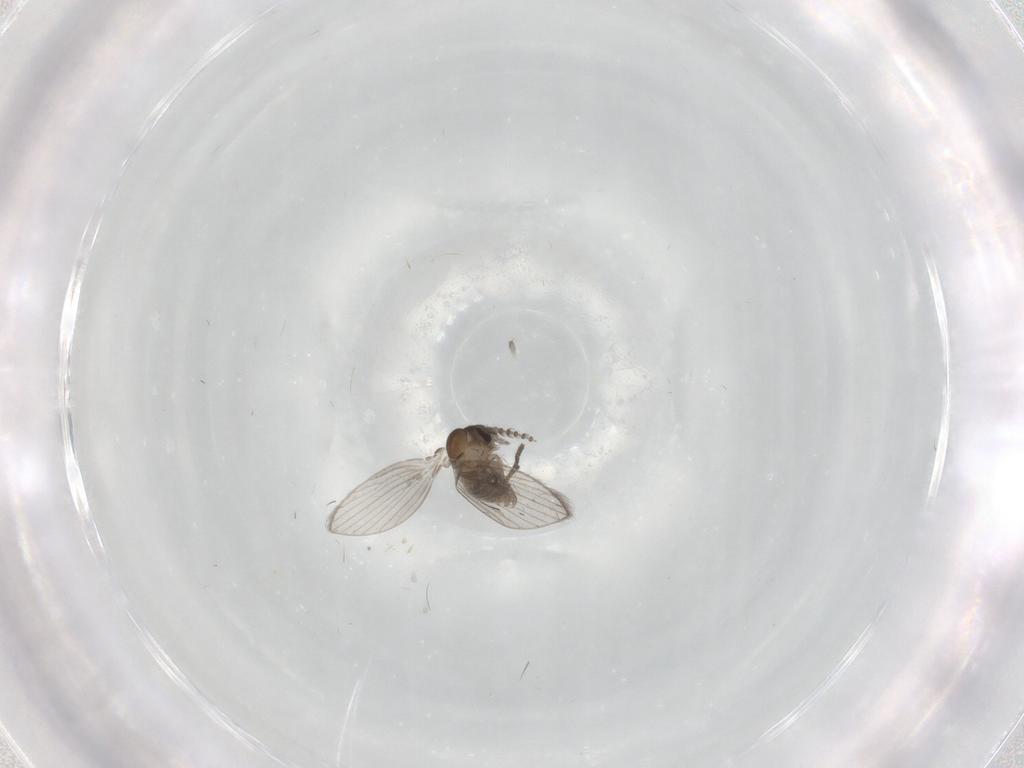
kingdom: Animalia
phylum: Arthropoda
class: Insecta
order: Diptera
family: Psychodidae
